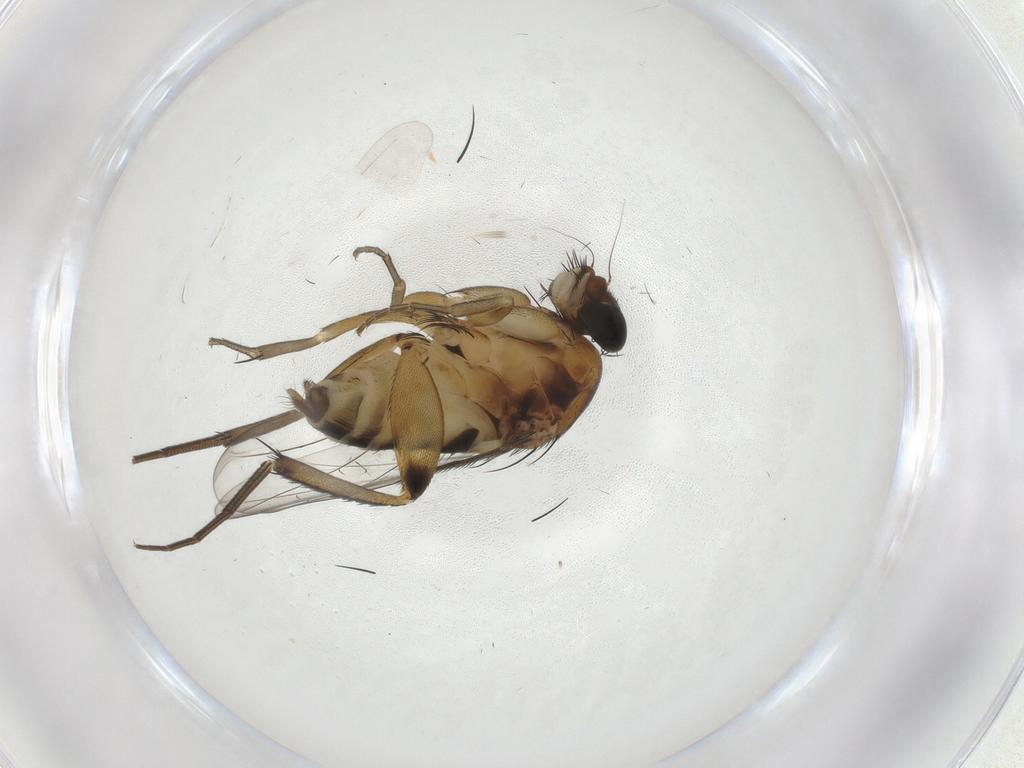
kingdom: Animalia
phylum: Arthropoda
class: Insecta
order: Diptera
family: Phoridae
